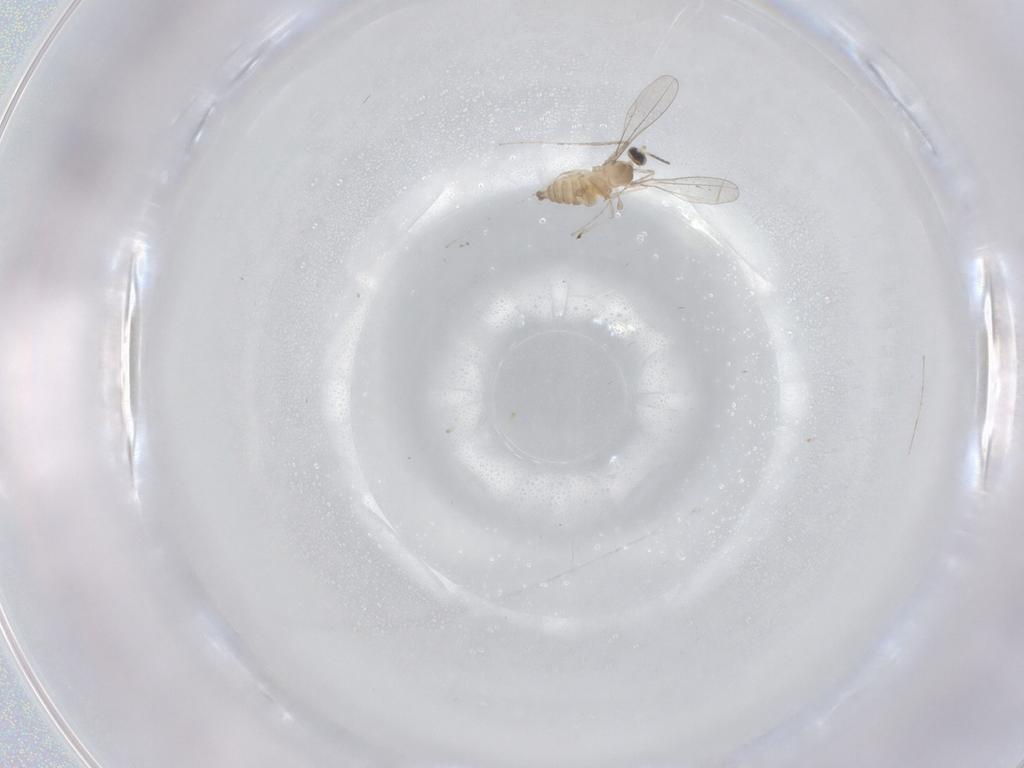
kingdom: Animalia
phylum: Arthropoda
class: Insecta
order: Diptera
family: Cecidomyiidae
